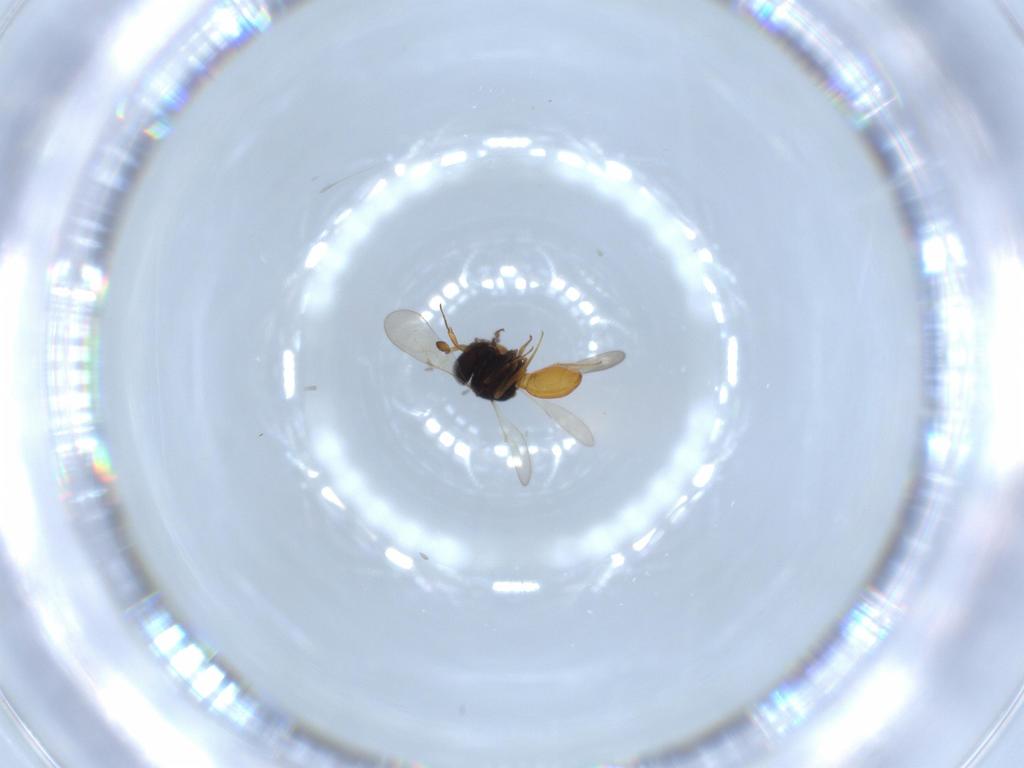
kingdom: Animalia
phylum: Arthropoda
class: Insecta
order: Hymenoptera
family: Scelionidae
